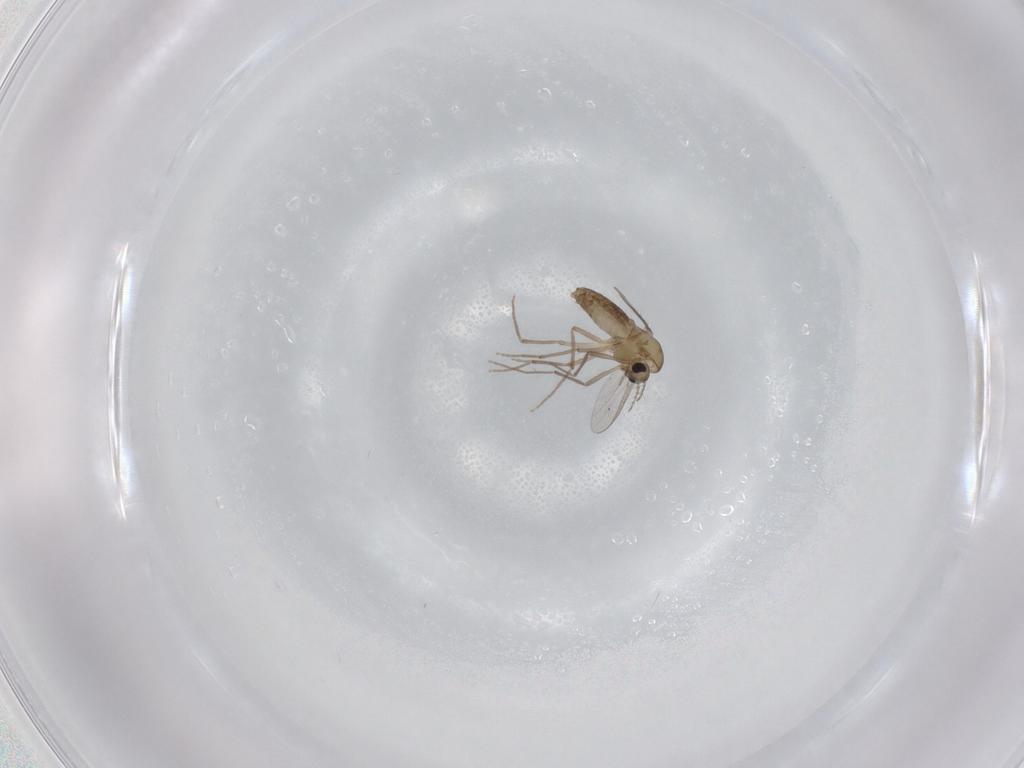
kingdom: Animalia
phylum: Arthropoda
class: Insecta
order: Diptera
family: Chironomidae
